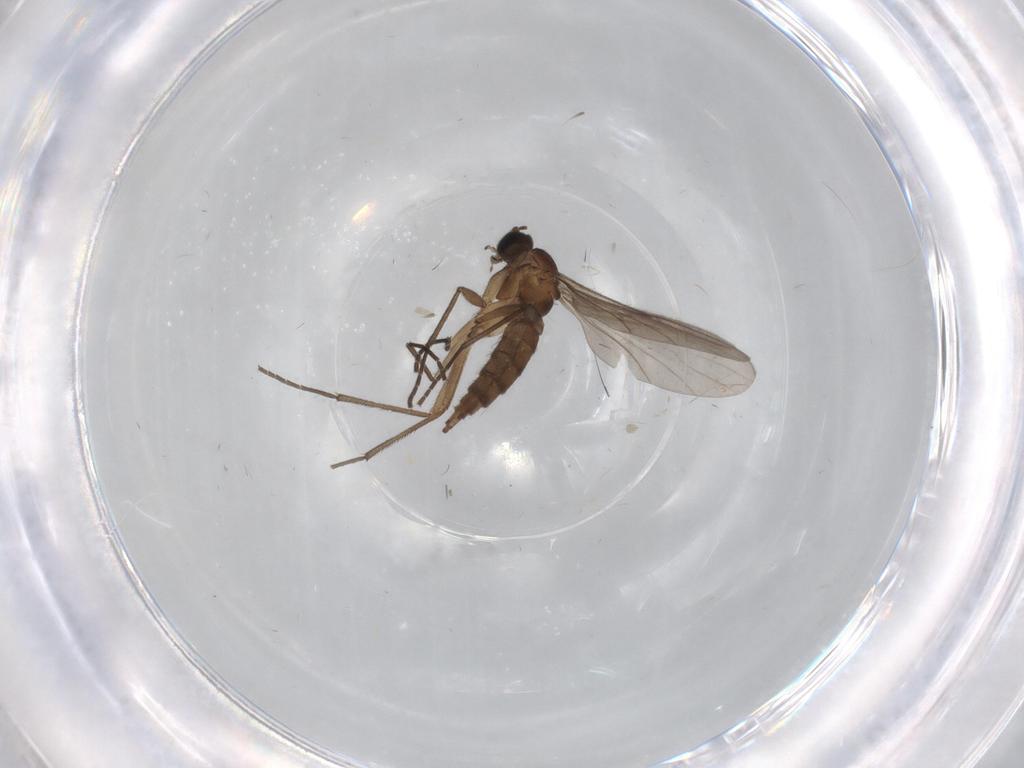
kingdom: Animalia
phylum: Arthropoda
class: Insecta
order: Diptera
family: Sciaridae
